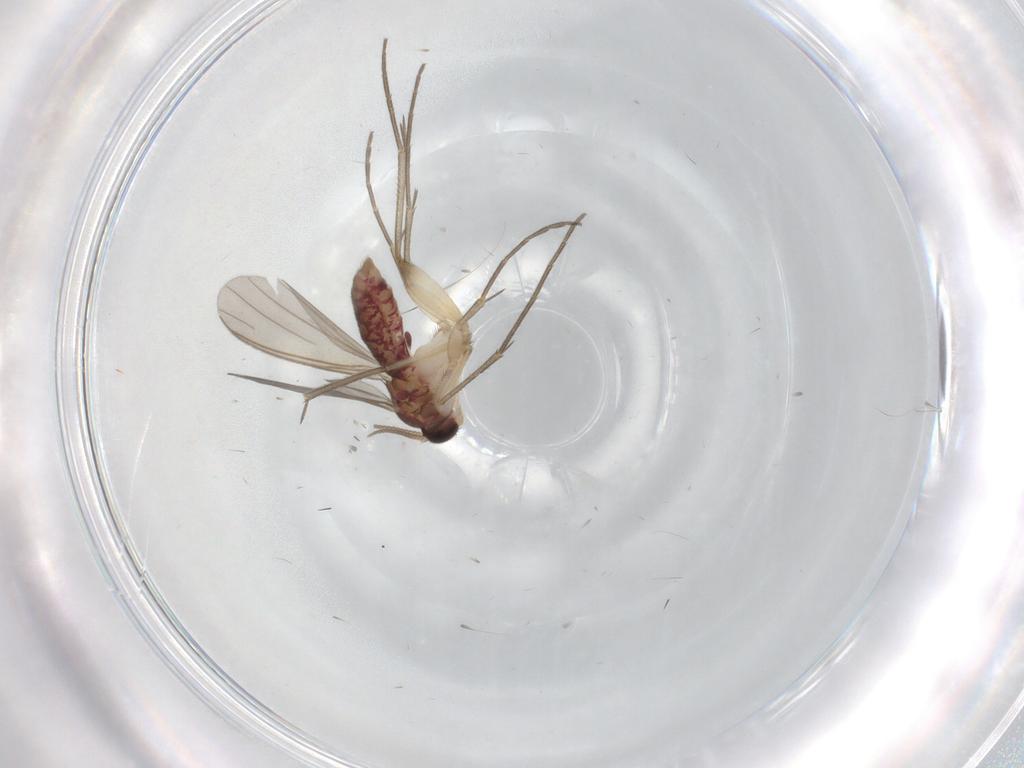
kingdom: Animalia
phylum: Arthropoda
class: Insecta
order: Diptera
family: Mycetophilidae
